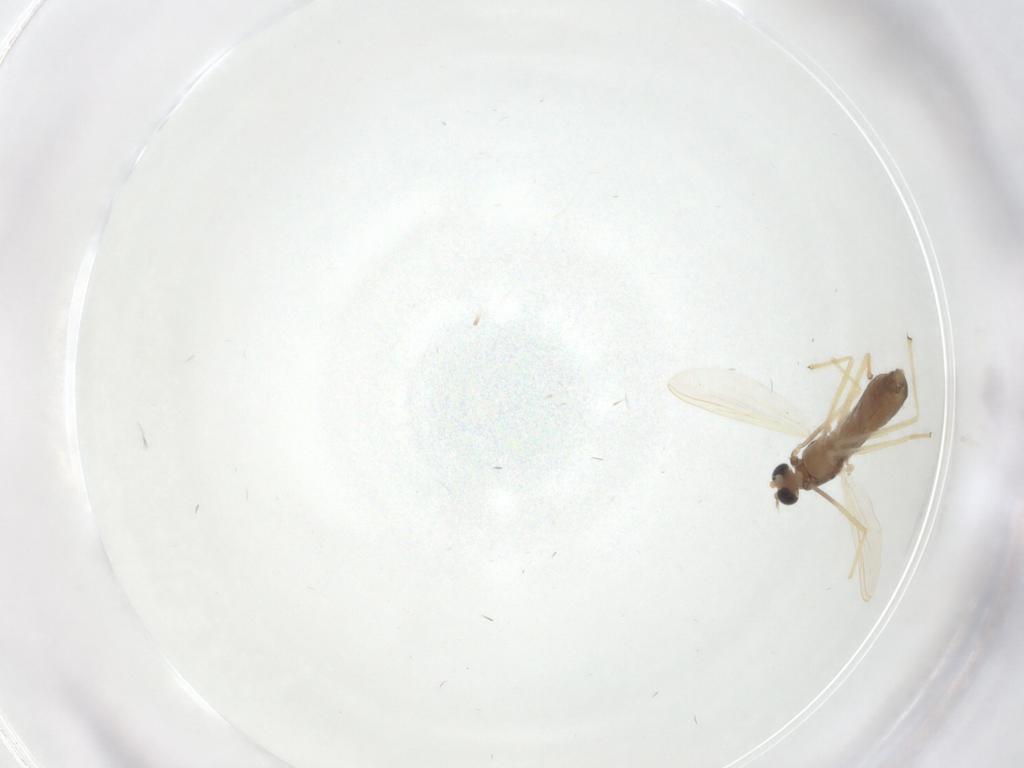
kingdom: Animalia
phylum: Arthropoda
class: Insecta
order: Diptera
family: Chironomidae
